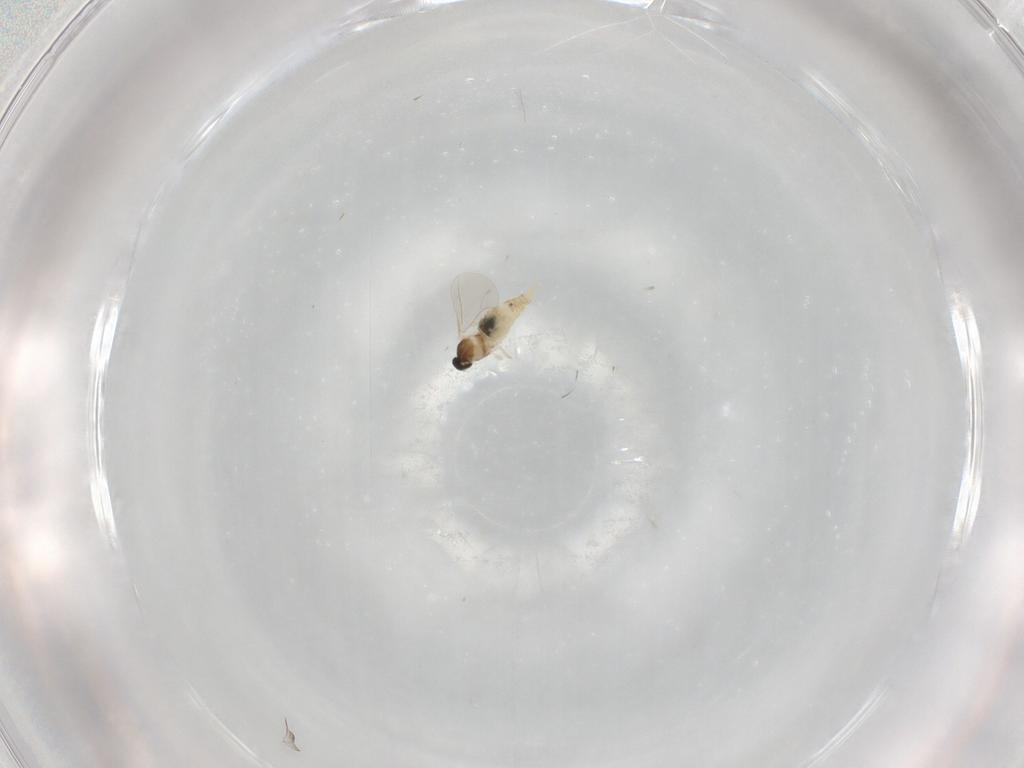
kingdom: Animalia
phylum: Arthropoda
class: Insecta
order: Diptera
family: Cecidomyiidae
